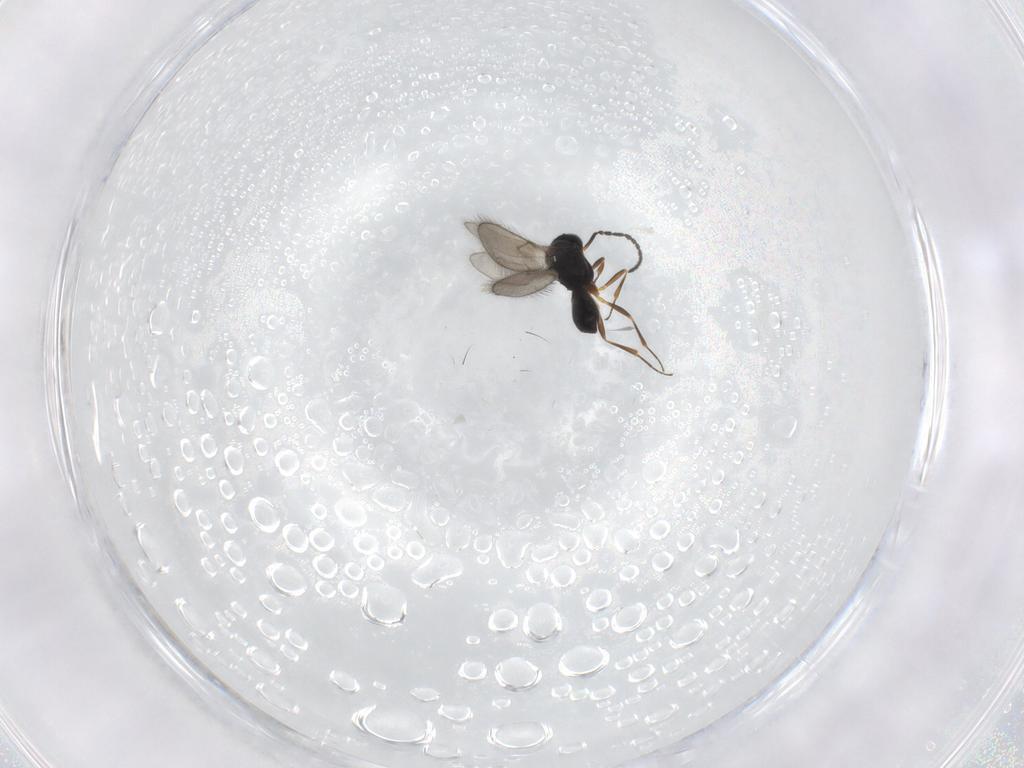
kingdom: Animalia
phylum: Arthropoda
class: Insecta
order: Hymenoptera
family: Scelionidae
